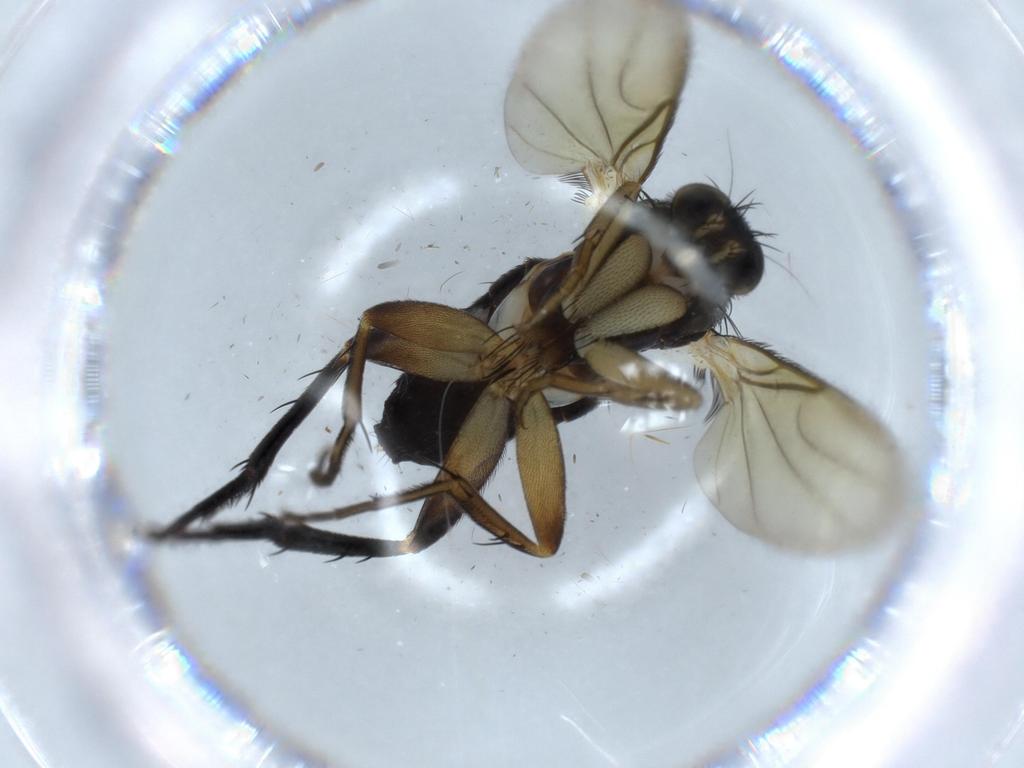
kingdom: Animalia
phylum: Arthropoda
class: Insecta
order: Diptera
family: Phoridae
